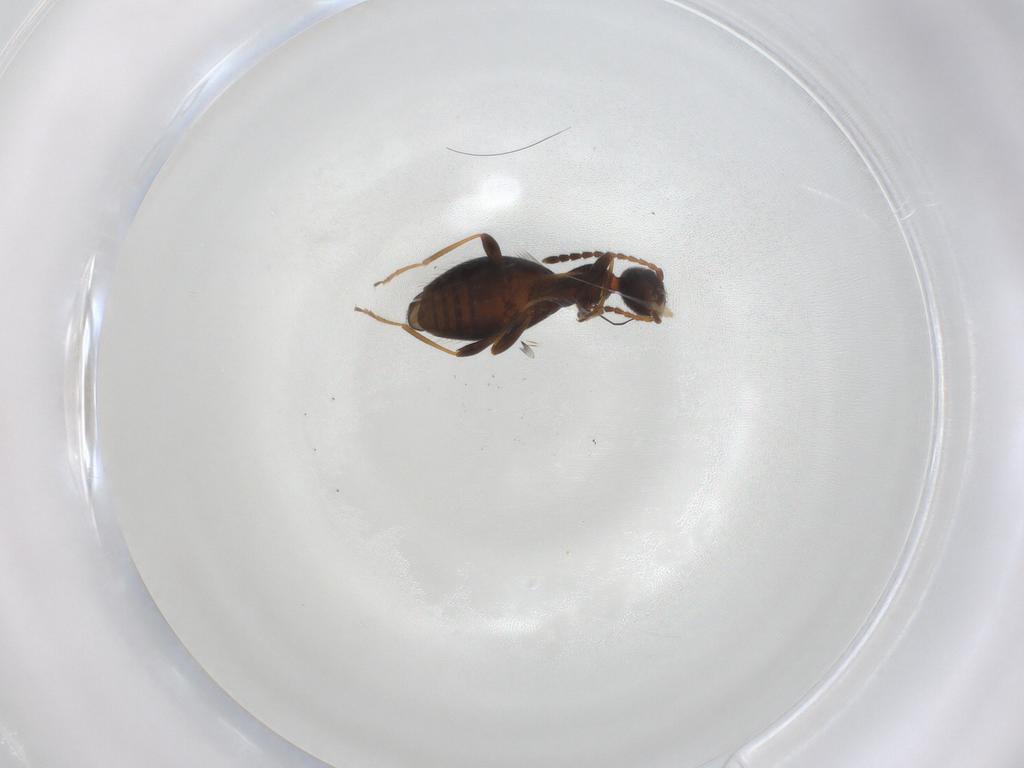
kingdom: Animalia
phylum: Arthropoda
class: Insecta
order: Coleoptera
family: Anthicidae
